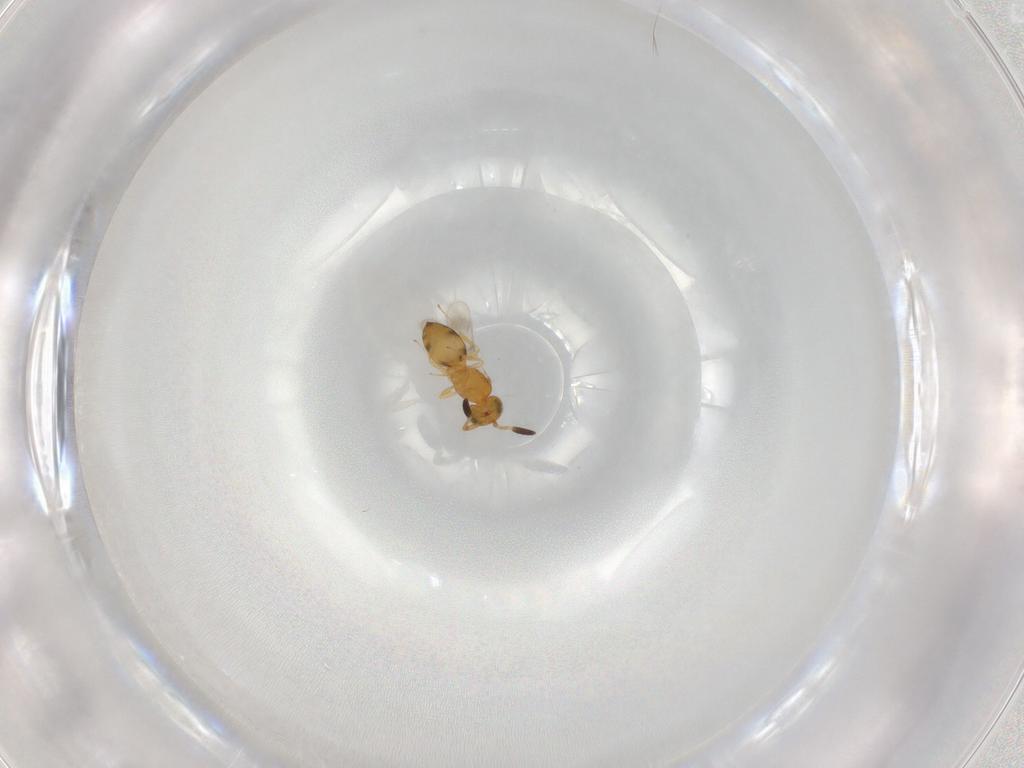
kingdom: Animalia
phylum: Arthropoda
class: Insecta
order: Hymenoptera
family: Scelionidae
